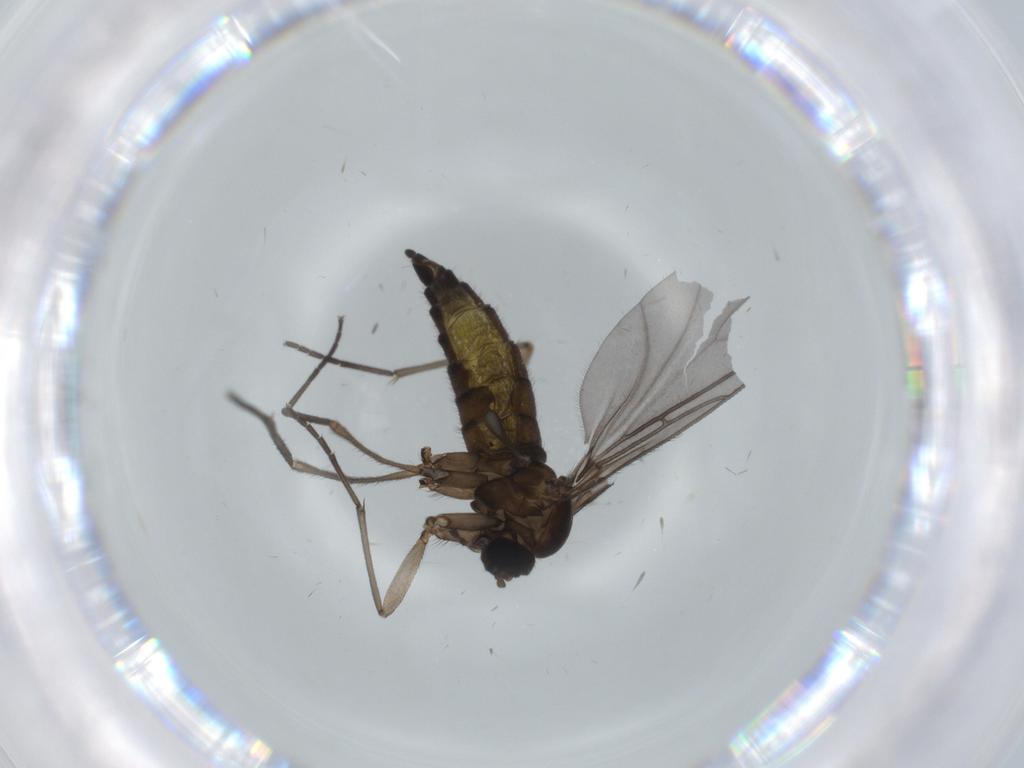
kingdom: Animalia
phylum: Arthropoda
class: Insecta
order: Diptera
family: Sciaridae
